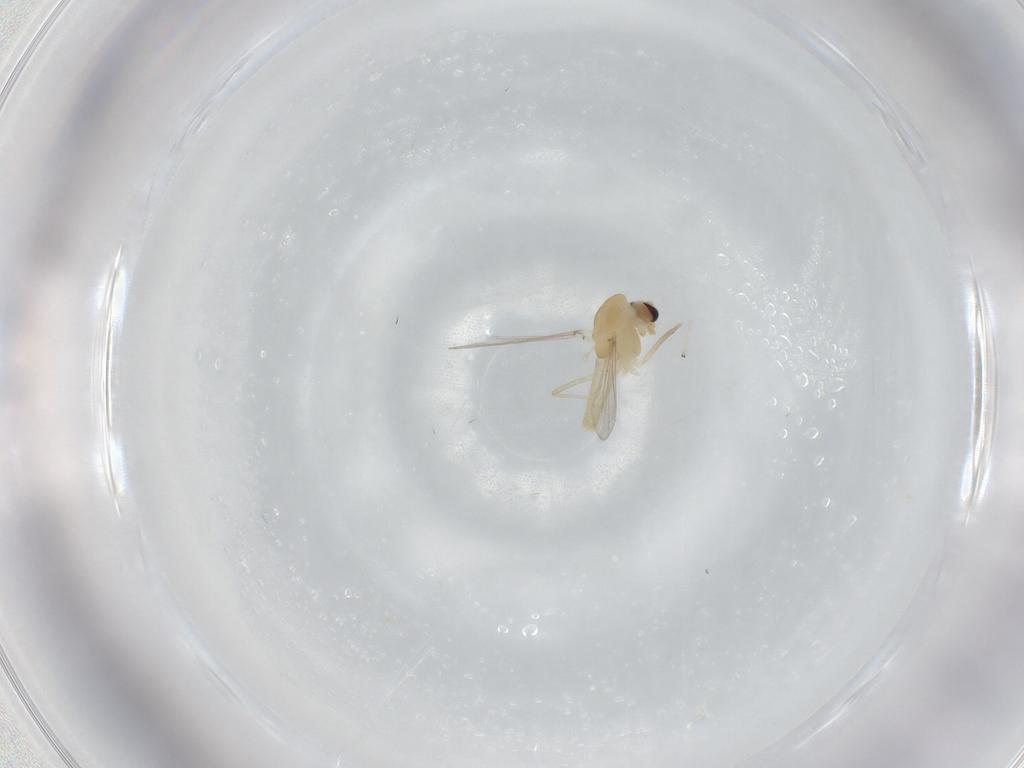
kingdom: Animalia
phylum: Arthropoda
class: Insecta
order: Diptera
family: Chironomidae
